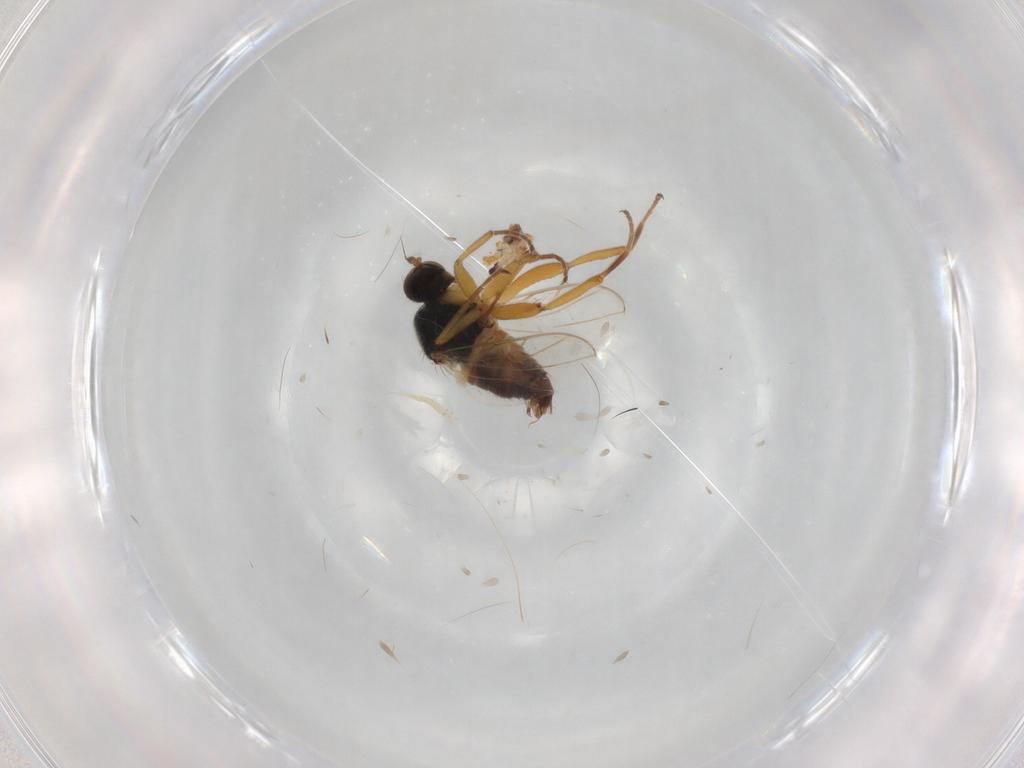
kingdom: Animalia
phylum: Arthropoda
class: Insecta
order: Diptera
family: Hybotidae
